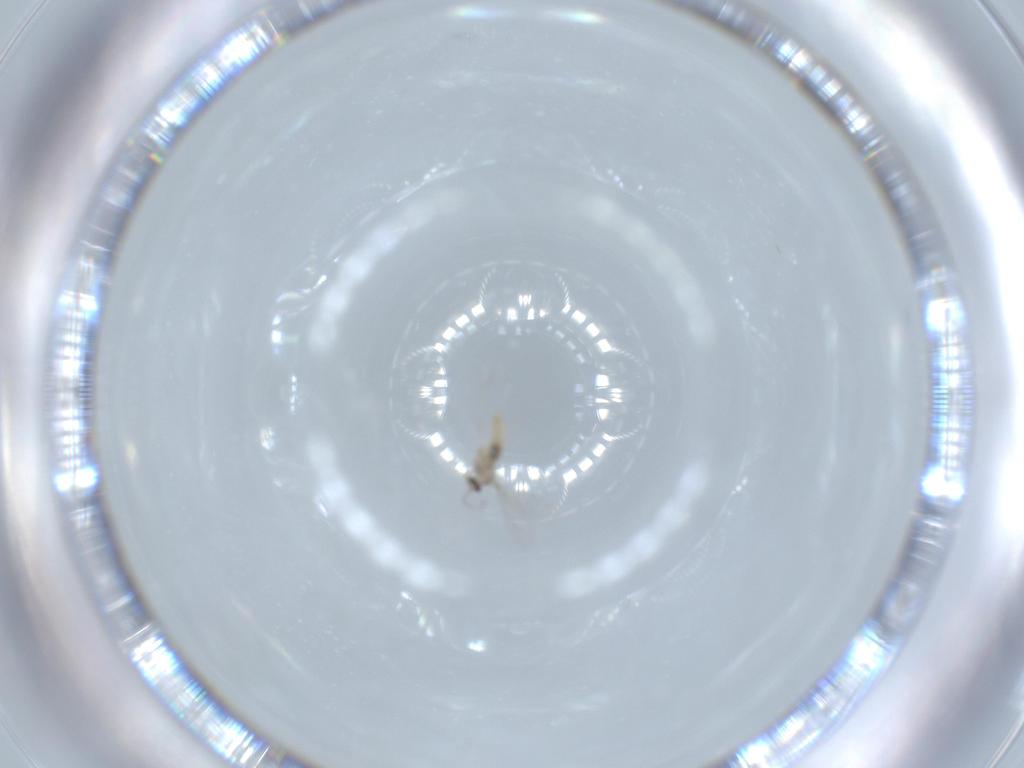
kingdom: Animalia
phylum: Arthropoda
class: Insecta
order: Diptera
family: Cecidomyiidae
